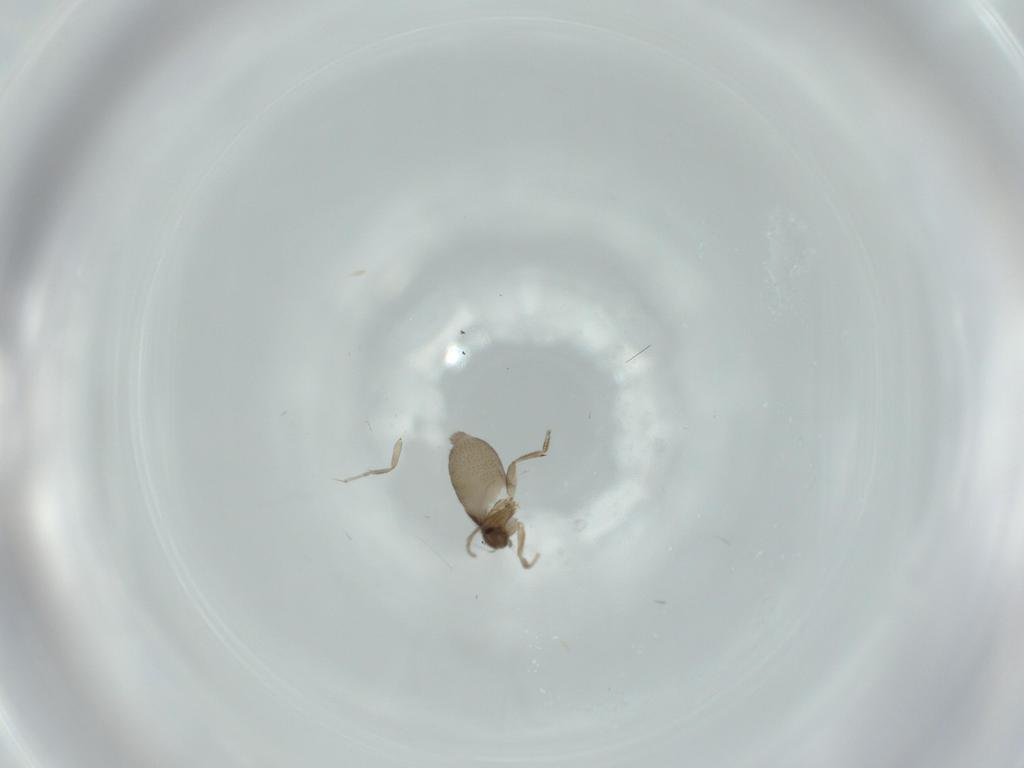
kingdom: Animalia
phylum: Arthropoda
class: Insecta
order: Diptera
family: Phoridae
